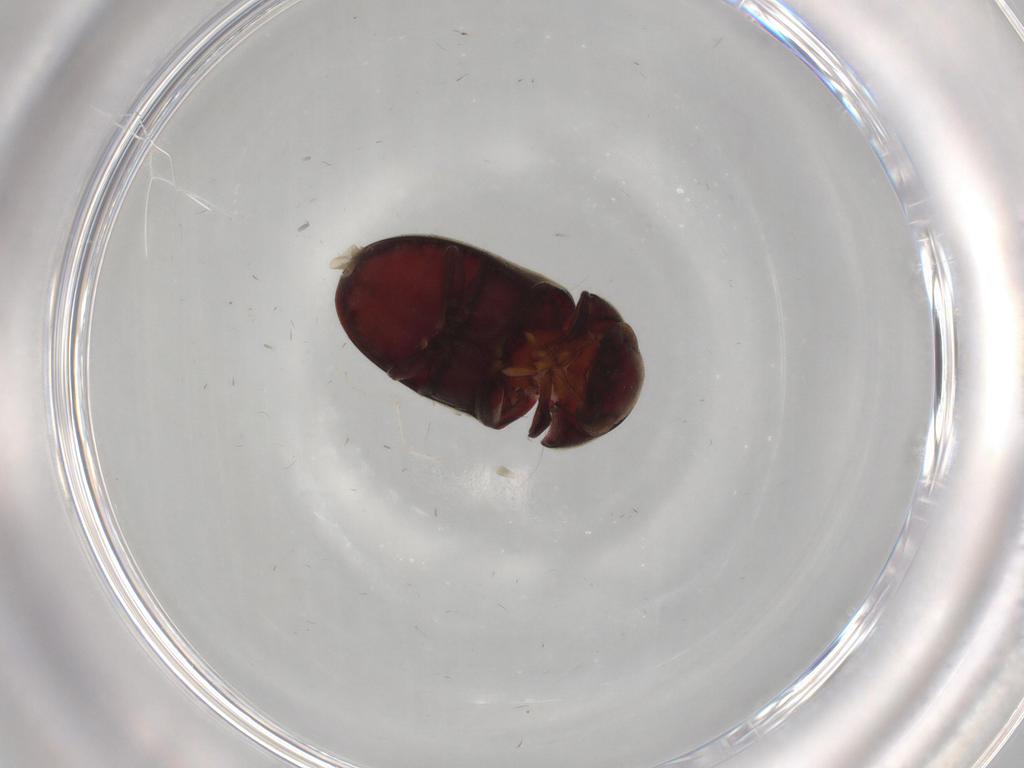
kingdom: Animalia
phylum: Arthropoda
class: Insecta
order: Coleoptera
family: Ptinidae
